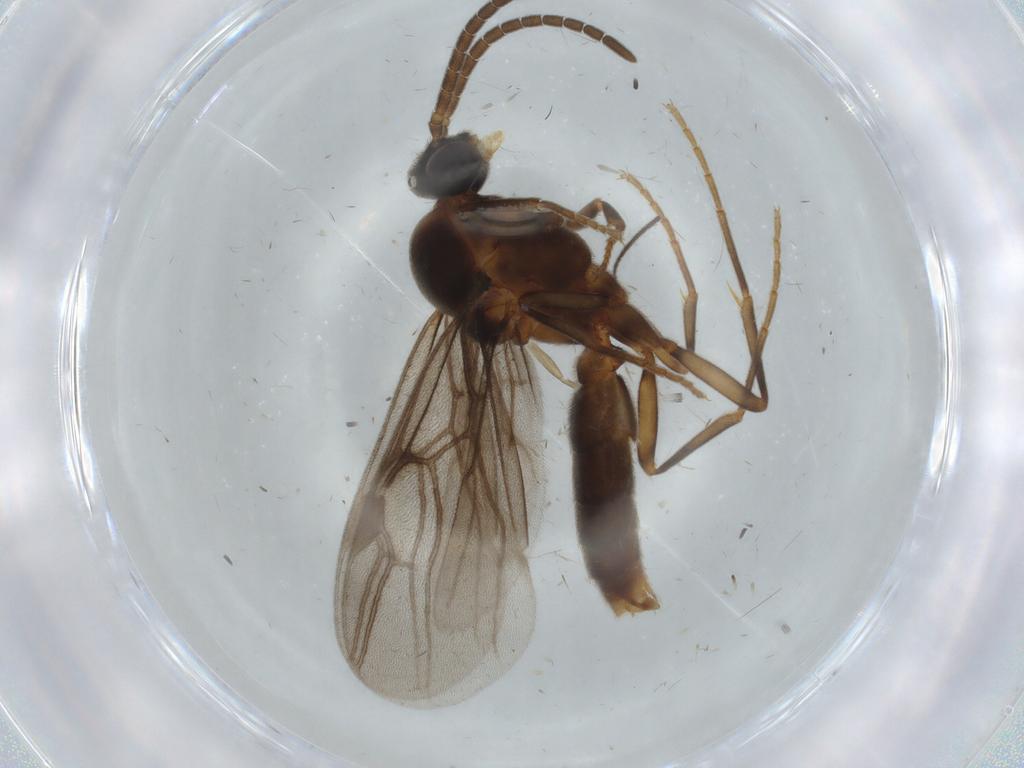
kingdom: Animalia
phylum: Arthropoda
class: Insecta
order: Hymenoptera
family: Evaniidae
